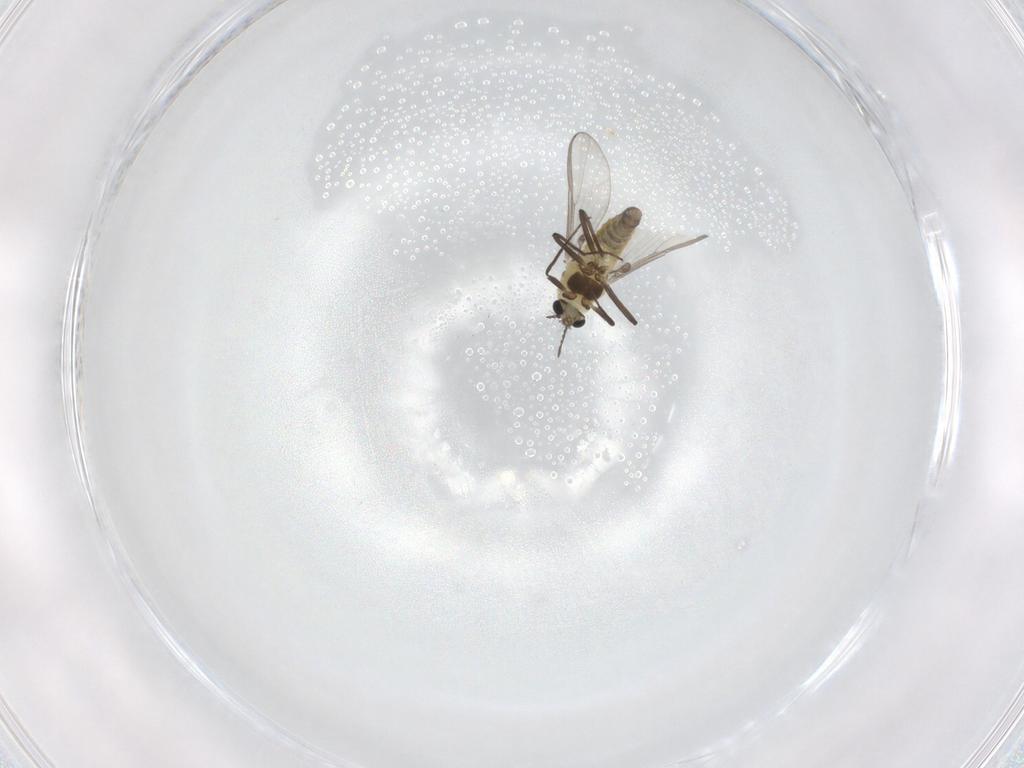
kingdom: Animalia
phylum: Arthropoda
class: Insecta
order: Diptera
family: Chironomidae
